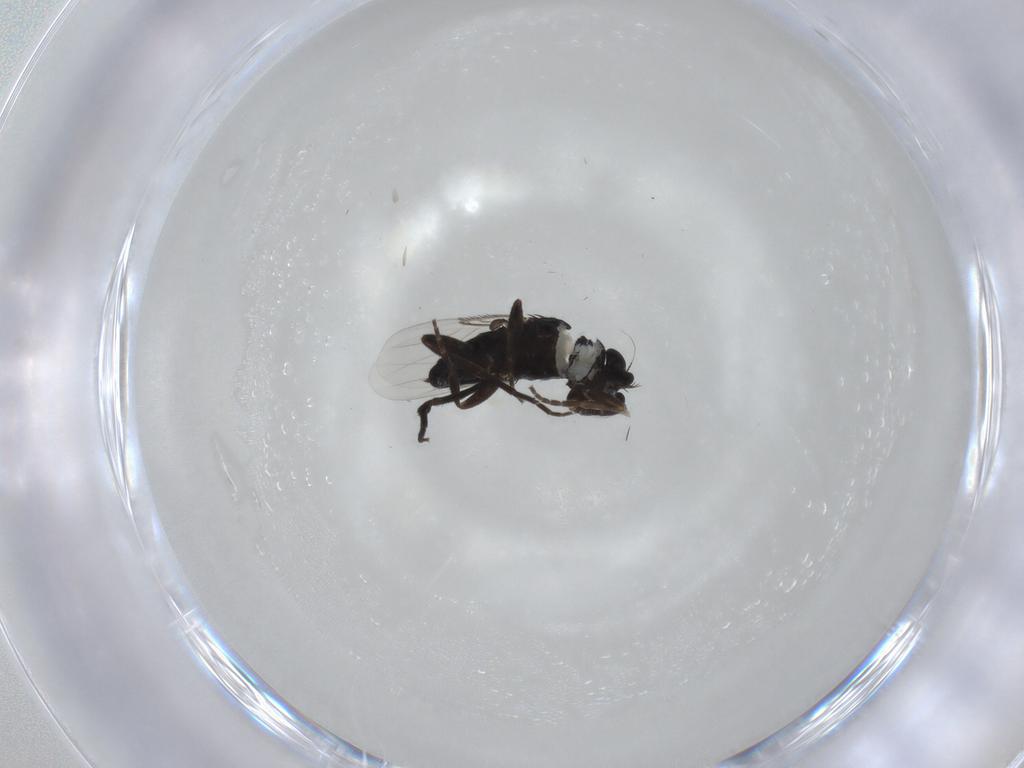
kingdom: Animalia
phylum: Arthropoda
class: Insecta
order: Diptera
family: Phoridae
